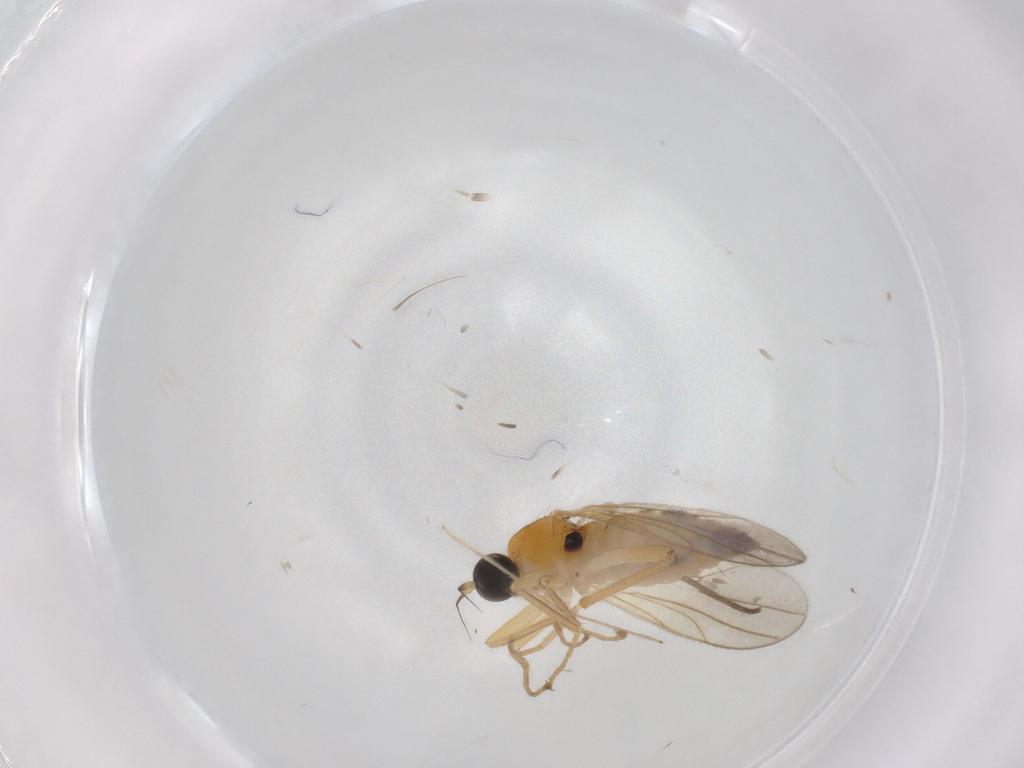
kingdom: Animalia
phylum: Arthropoda
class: Insecta
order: Diptera
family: Hybotidae
